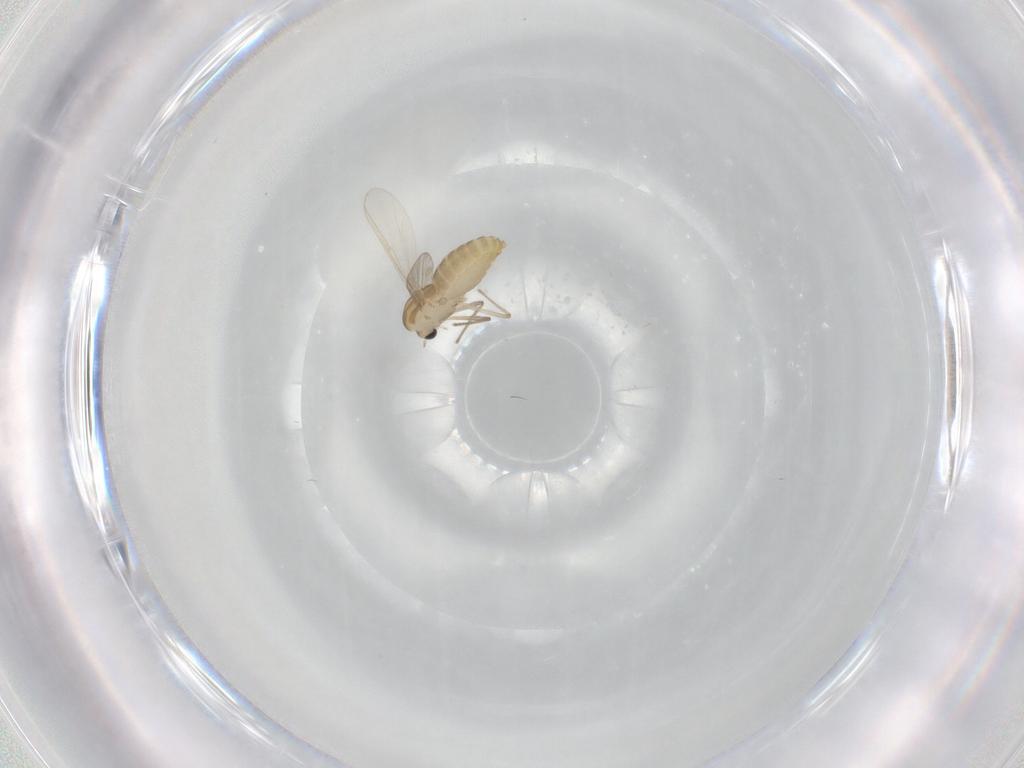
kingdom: Animalia
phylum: Arthropoda
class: Insecta
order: Diptera
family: Chironomidae
